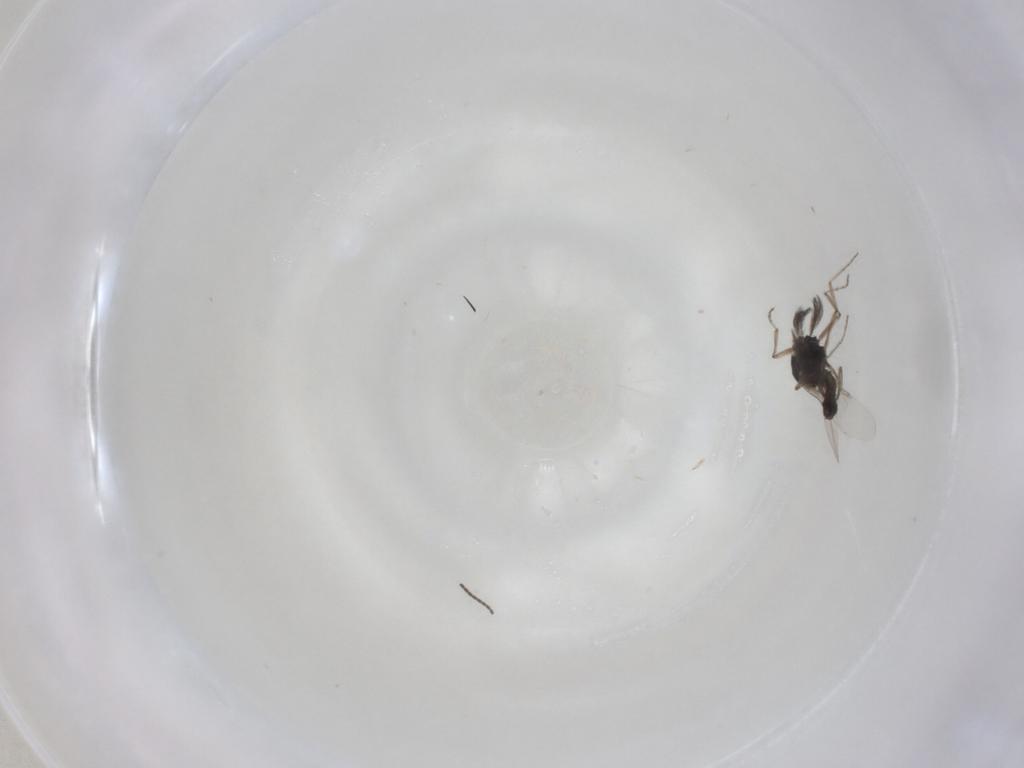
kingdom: Animalia
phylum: Arthropoda
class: Insecta
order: Diptera
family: Ceratopogonidae
